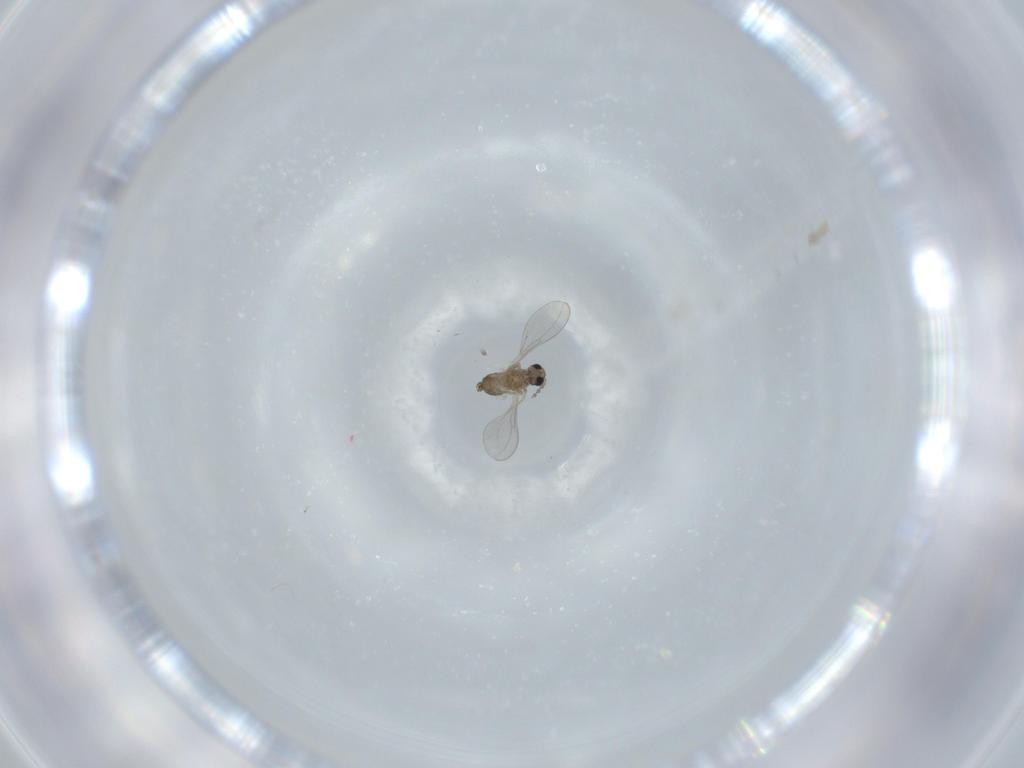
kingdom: Animalia
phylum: Arthropoda
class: Insecta
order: Diptera
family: Cecidomyiidae
